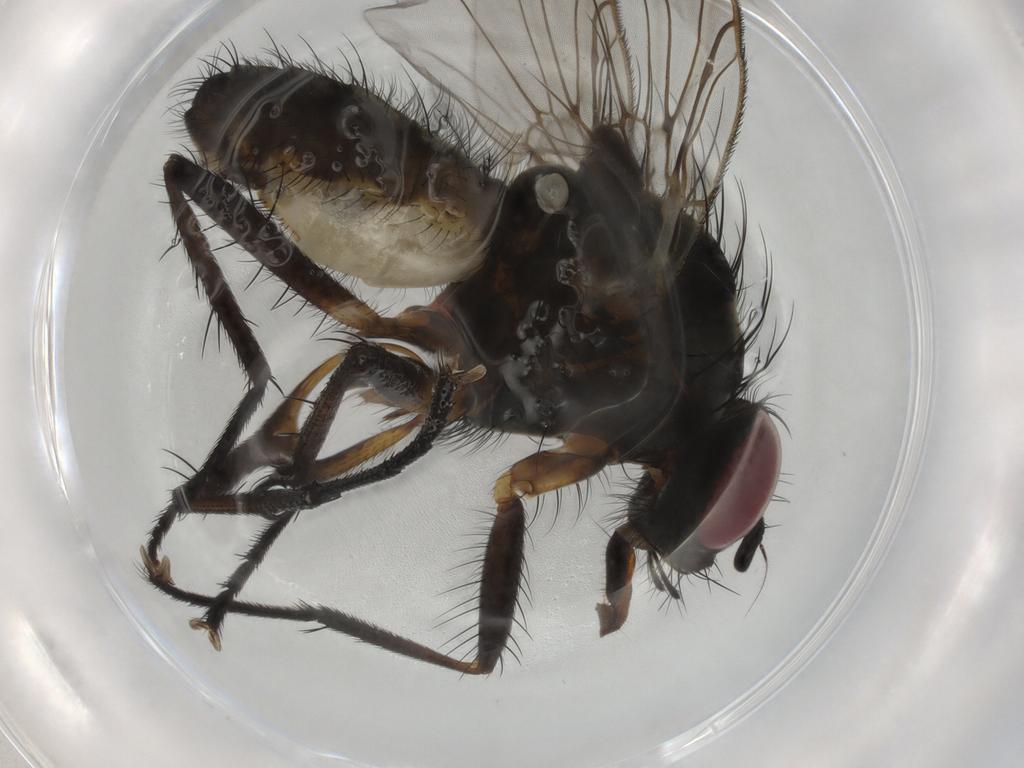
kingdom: Animalia
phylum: Arthropoda
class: Insecta
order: Diptera
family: Anthomyiidae
